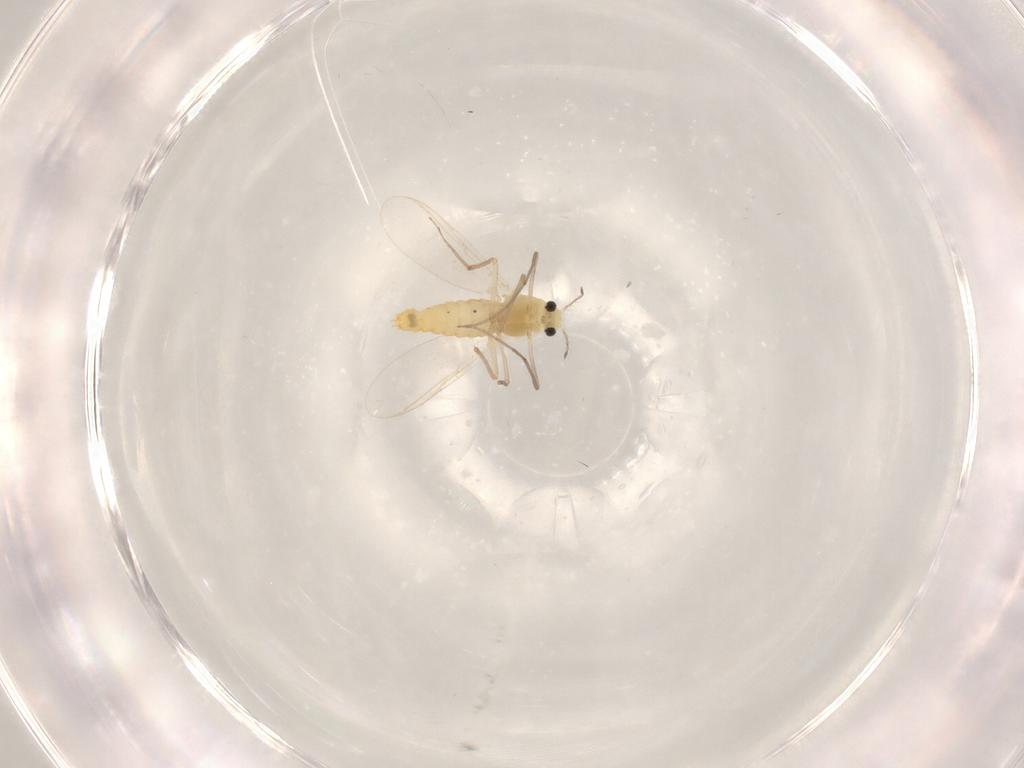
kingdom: Animalia
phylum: Arthropoda
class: Insecta
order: Diptera
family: Chironomidae
